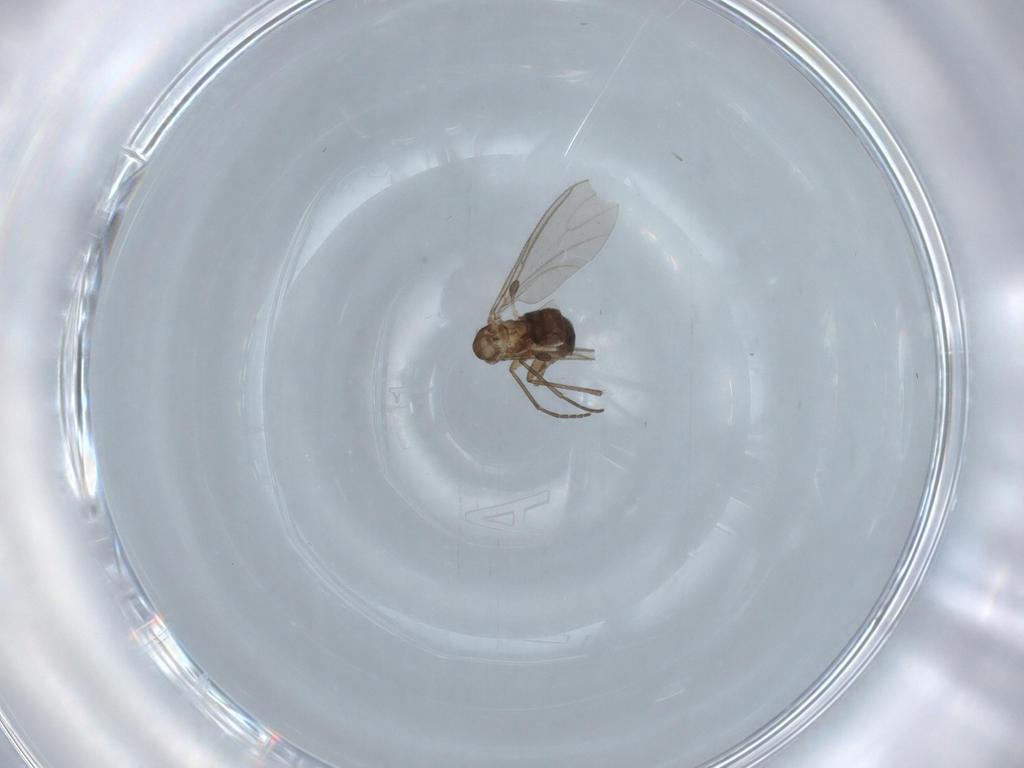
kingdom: Animalia
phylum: Arthropoda
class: Insecta
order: Diptera
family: Sciaridae
